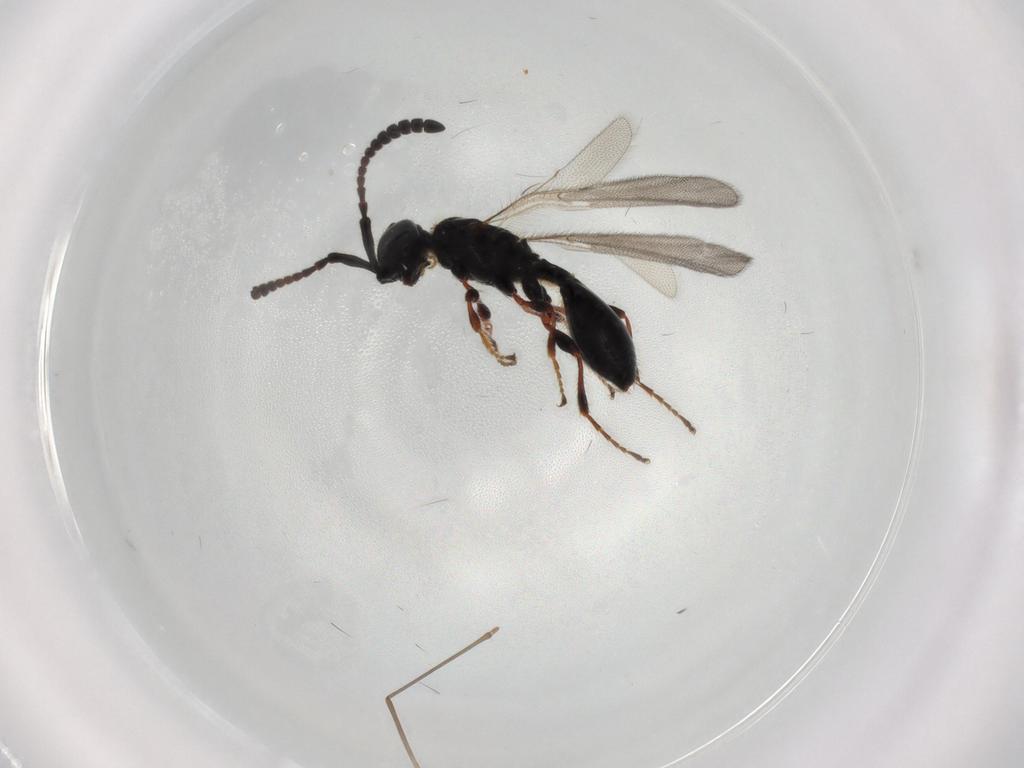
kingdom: Animalia
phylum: Arthropoda
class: Insecta
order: Hymenoptera
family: Diapriidae
